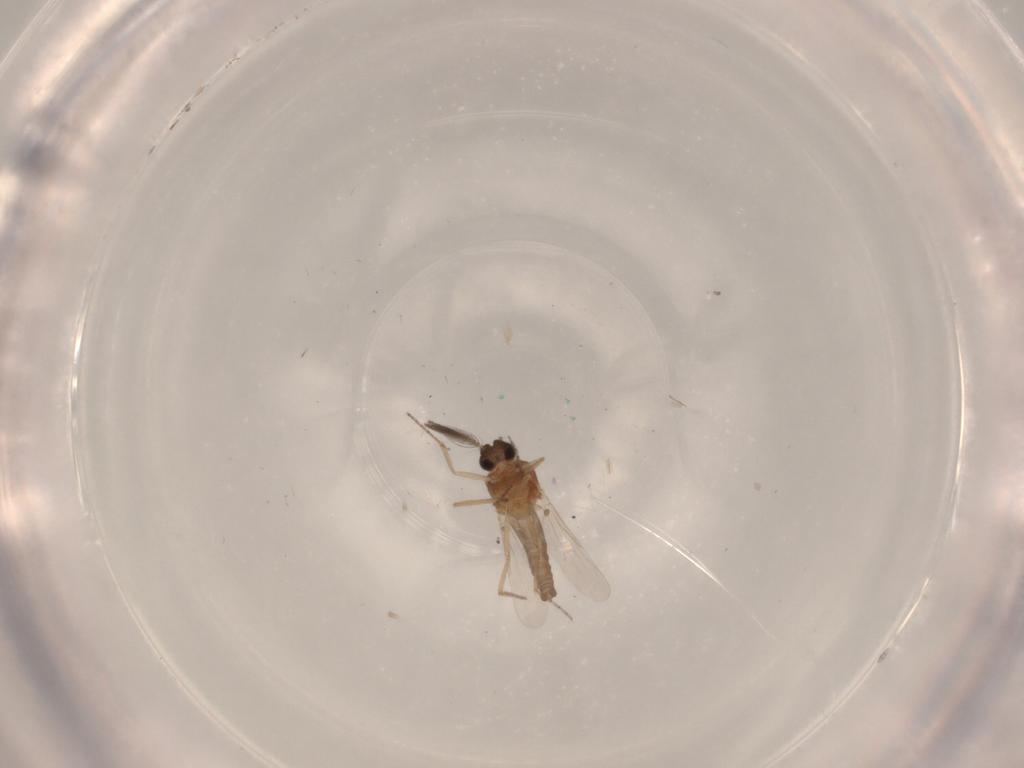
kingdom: Animalia
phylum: Arthropoda
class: Insecta
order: Diptera
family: Ceratopogonidae
